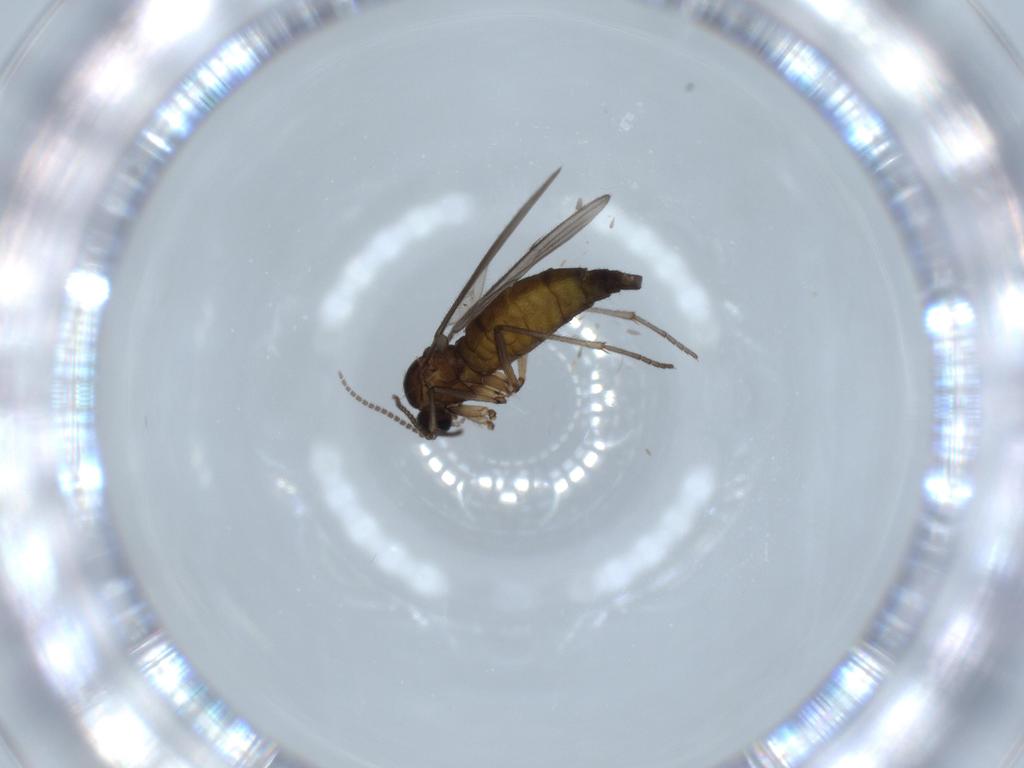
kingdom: Animalia
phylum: Arthropoda
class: Insecta
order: Diptera
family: Sciaridae
